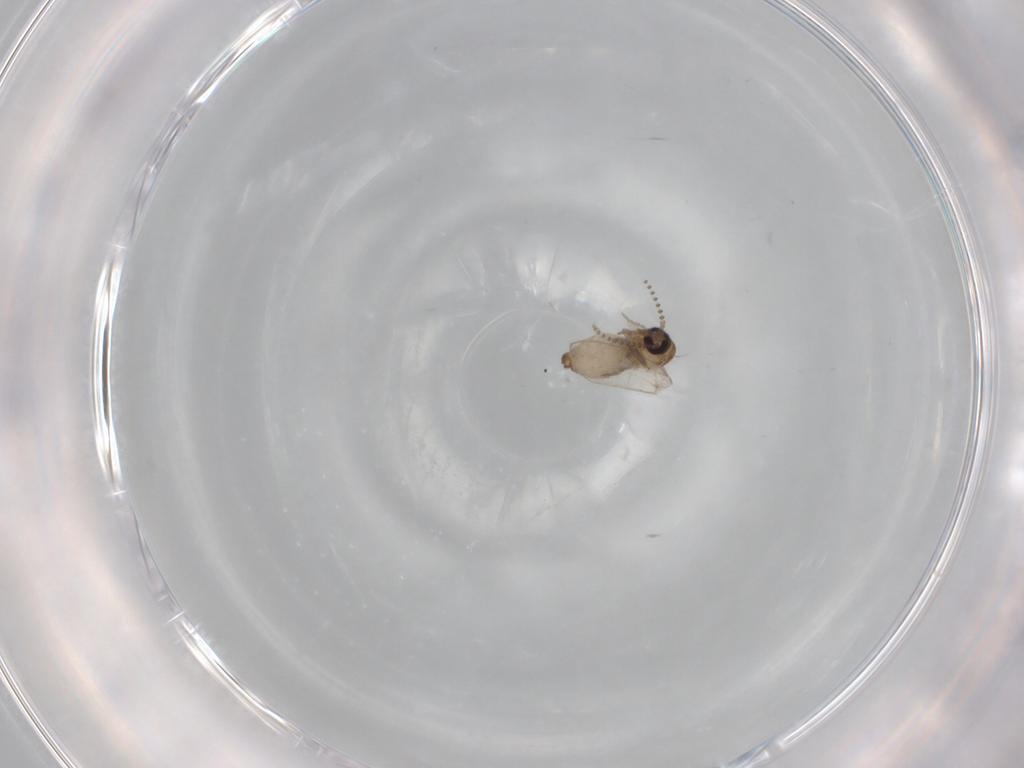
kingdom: Animalia
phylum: Arthropoda
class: Insecta
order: Diptera
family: Psychodidae
